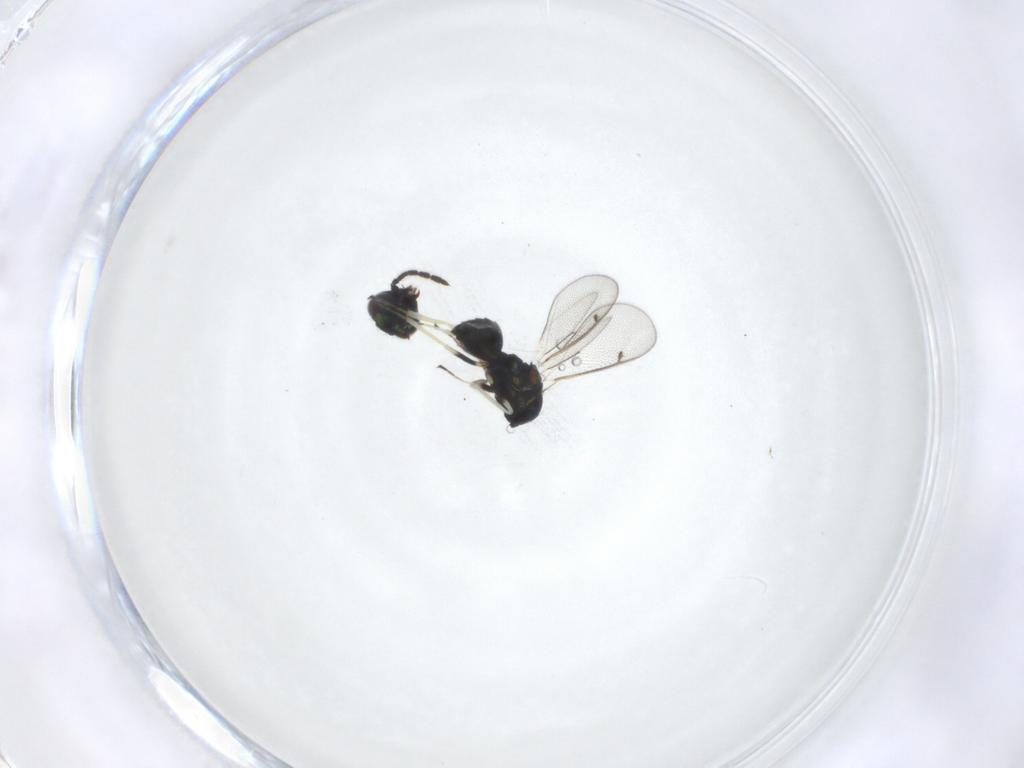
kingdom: Animalia
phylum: Arthropoda
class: Insecta
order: Hymenoptera
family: Eulophidae
